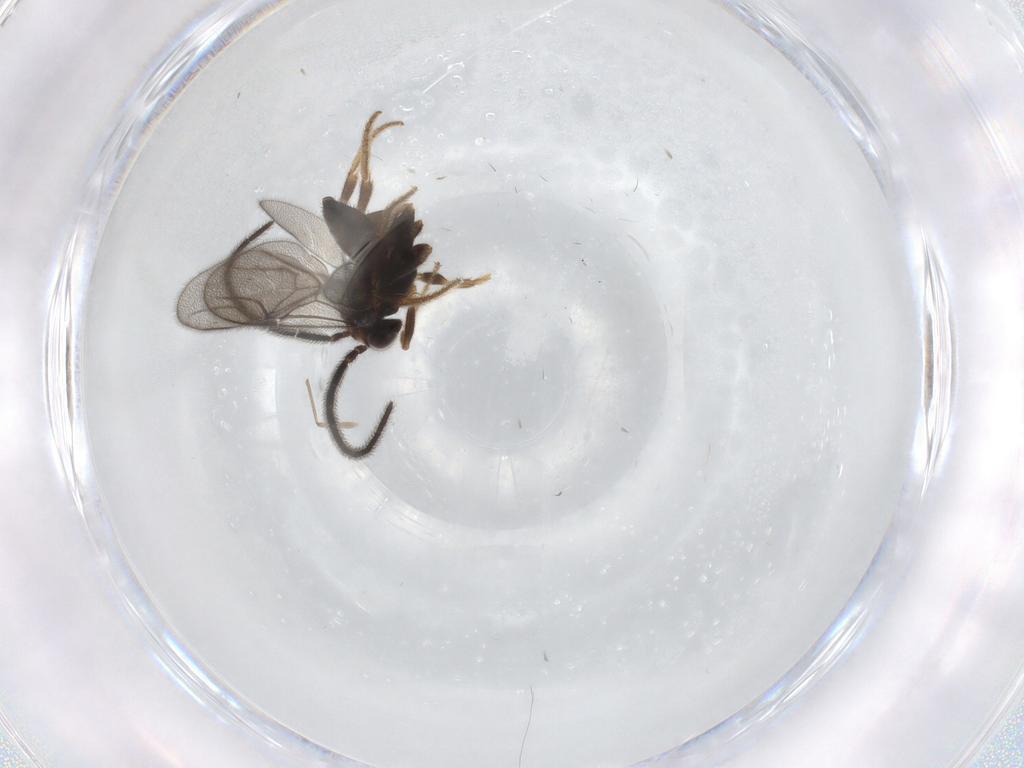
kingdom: Animalia
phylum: Arthropoda
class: Insecta
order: Hymenoptera
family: Dryinidae
